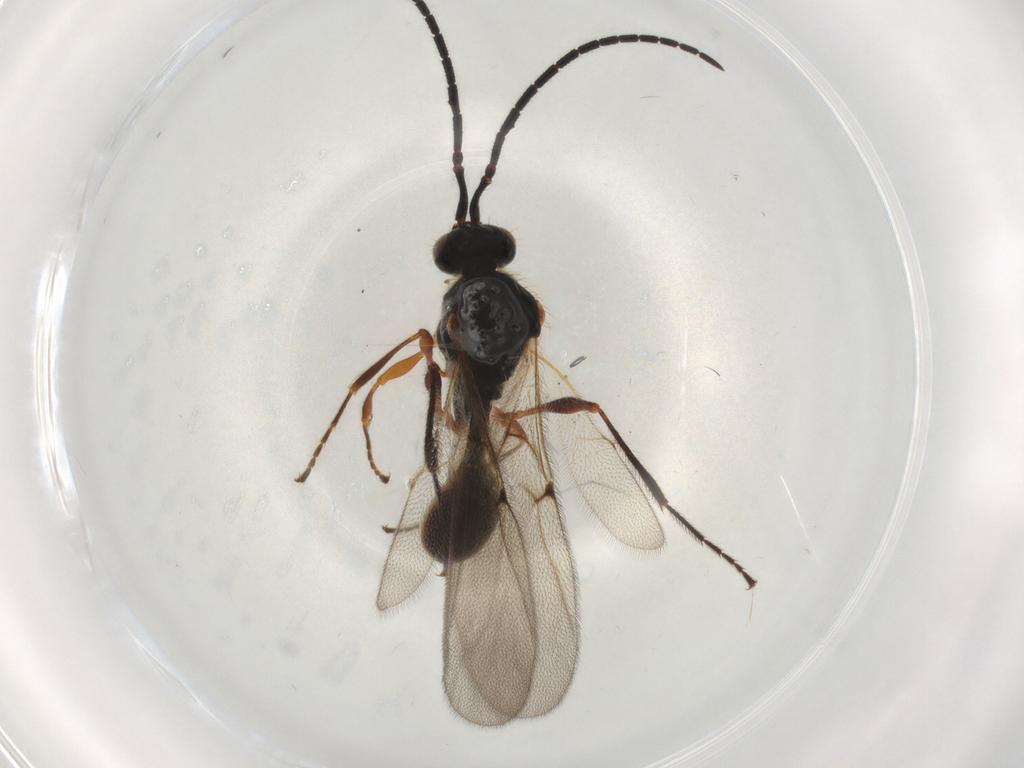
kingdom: Animalia
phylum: Arthropoda
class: Insecta
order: Hymenoptera
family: Diapriidae
